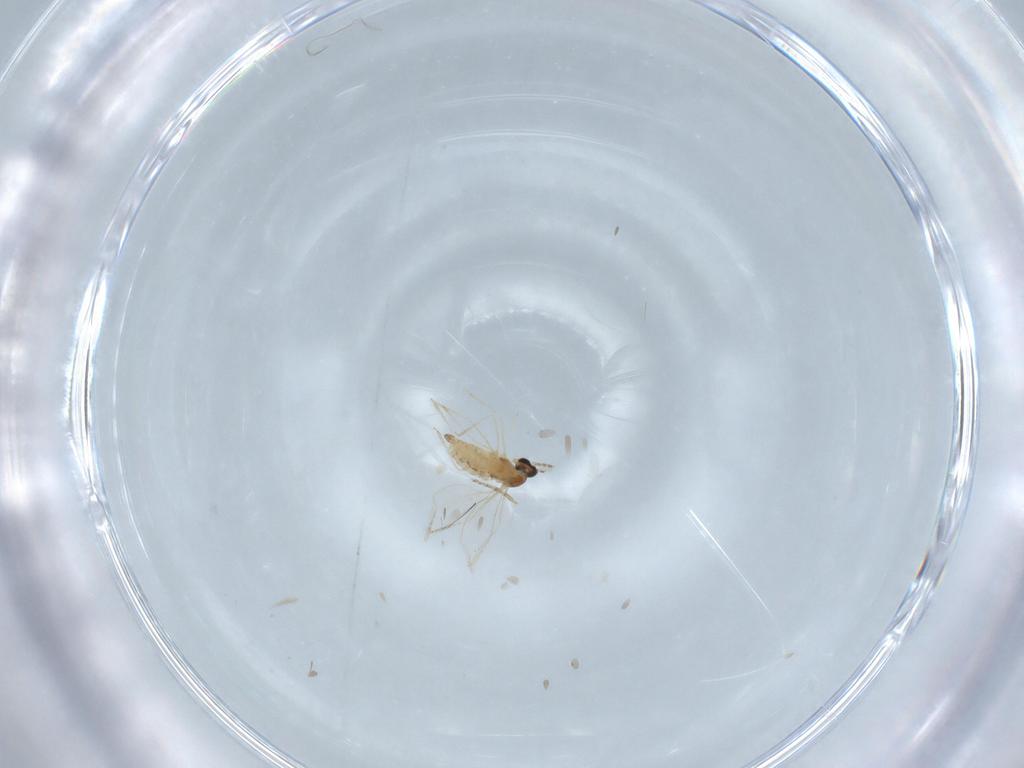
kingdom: Animalia
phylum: Arthropoda
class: Insecta
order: Diptera
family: Cecidomyiidae
